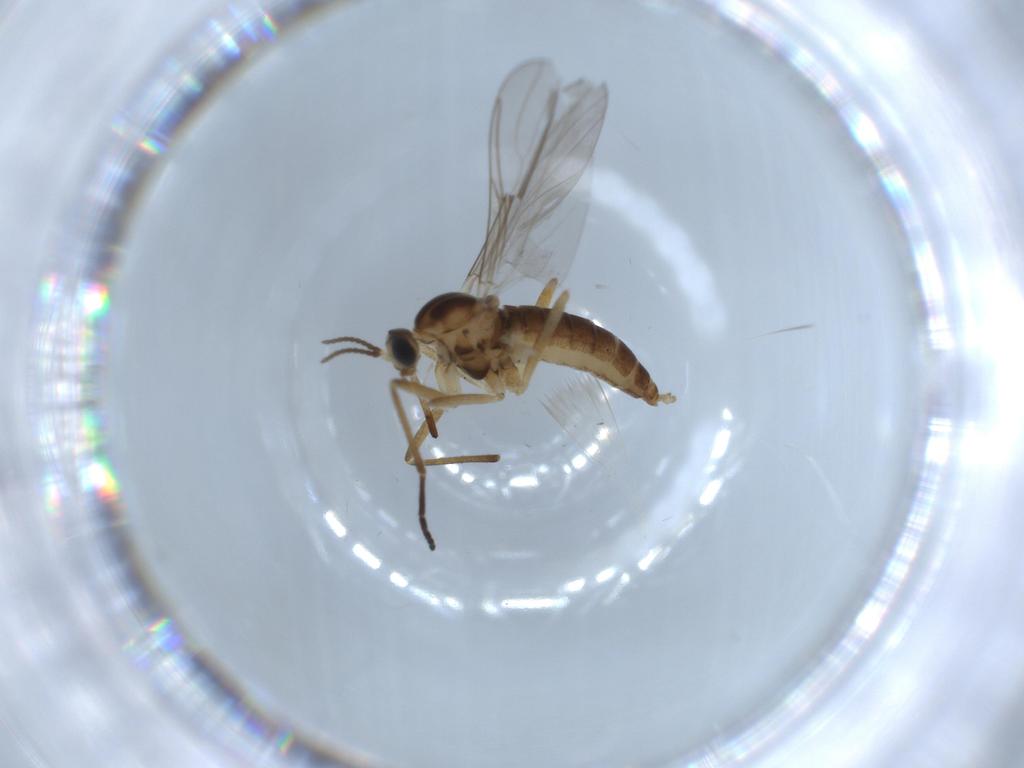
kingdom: Animalia
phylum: Arthropoda
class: Insecta
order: Diptera
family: Cecidomyiidae
